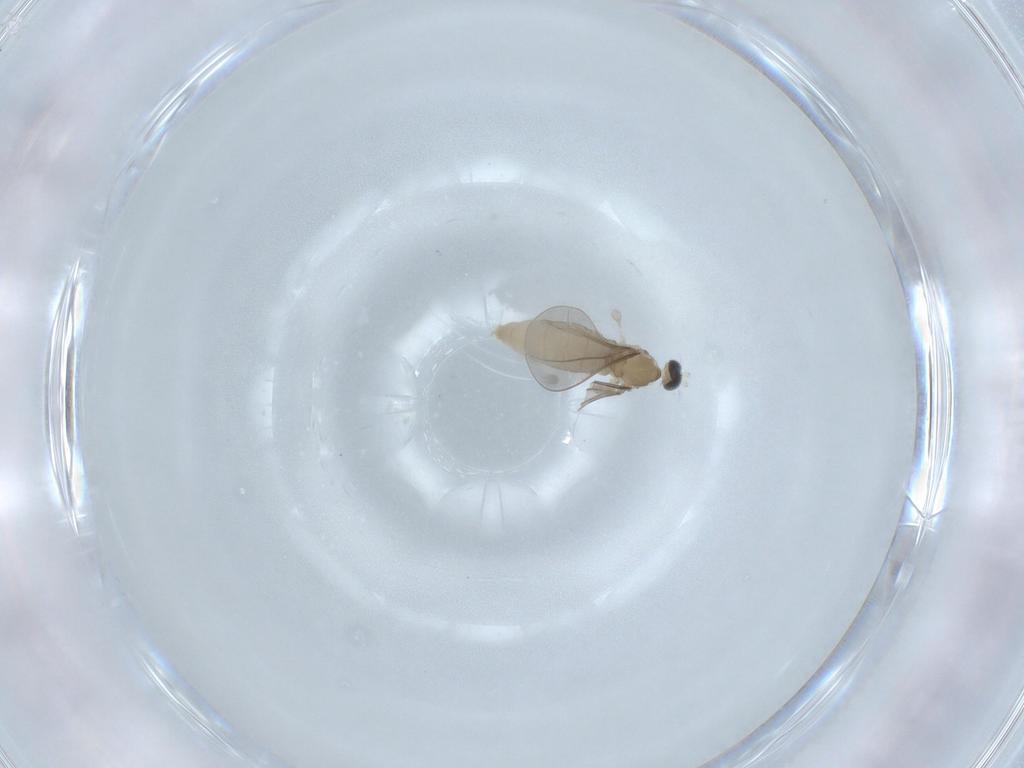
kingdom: Animalia
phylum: Arthropoda
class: Insecta
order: Diptera
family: Cecidomyiidae
